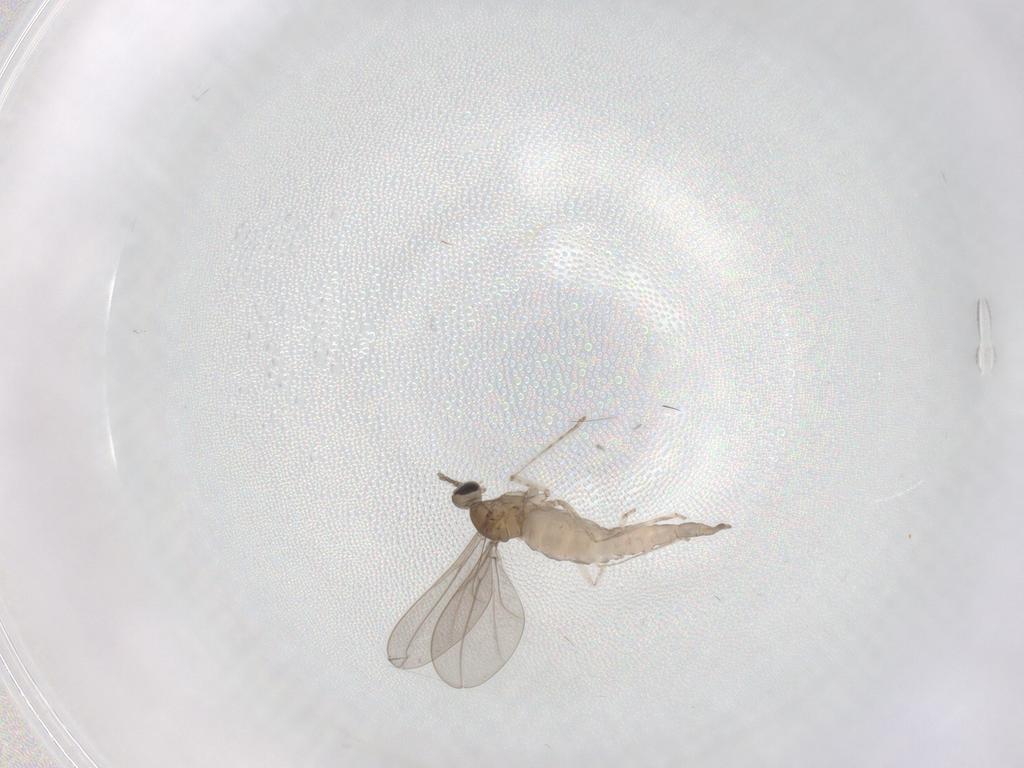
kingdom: Animalia
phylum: Arthropoda
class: Insecta
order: Diptera
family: Cecidomyiidae
